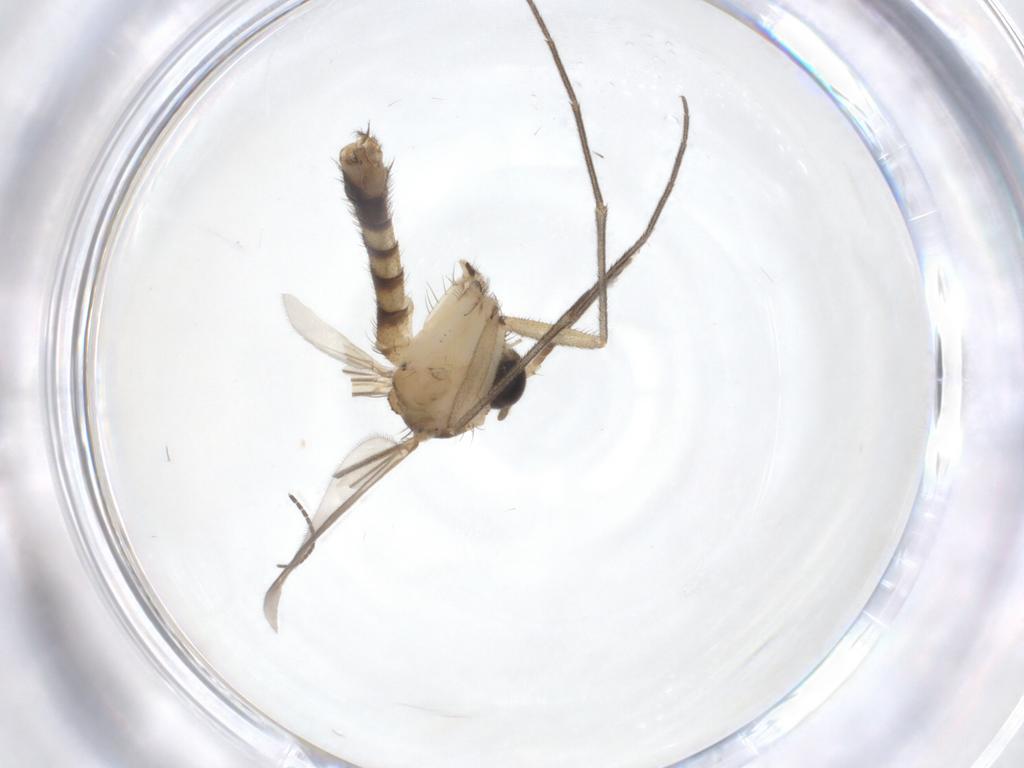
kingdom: Animalia
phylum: Arthropoda
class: Insecta
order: Diptera
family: Mycetophilidae
